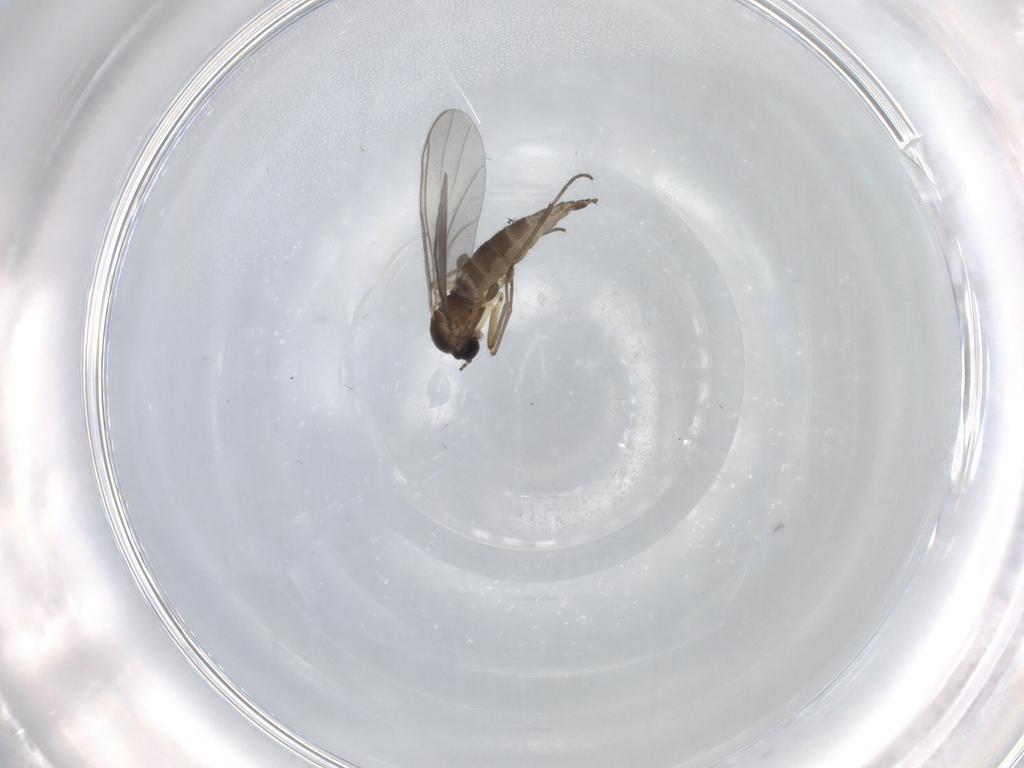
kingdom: Animalia
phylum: Arthropoda
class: Insecta
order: Diptera
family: Sciaridae
